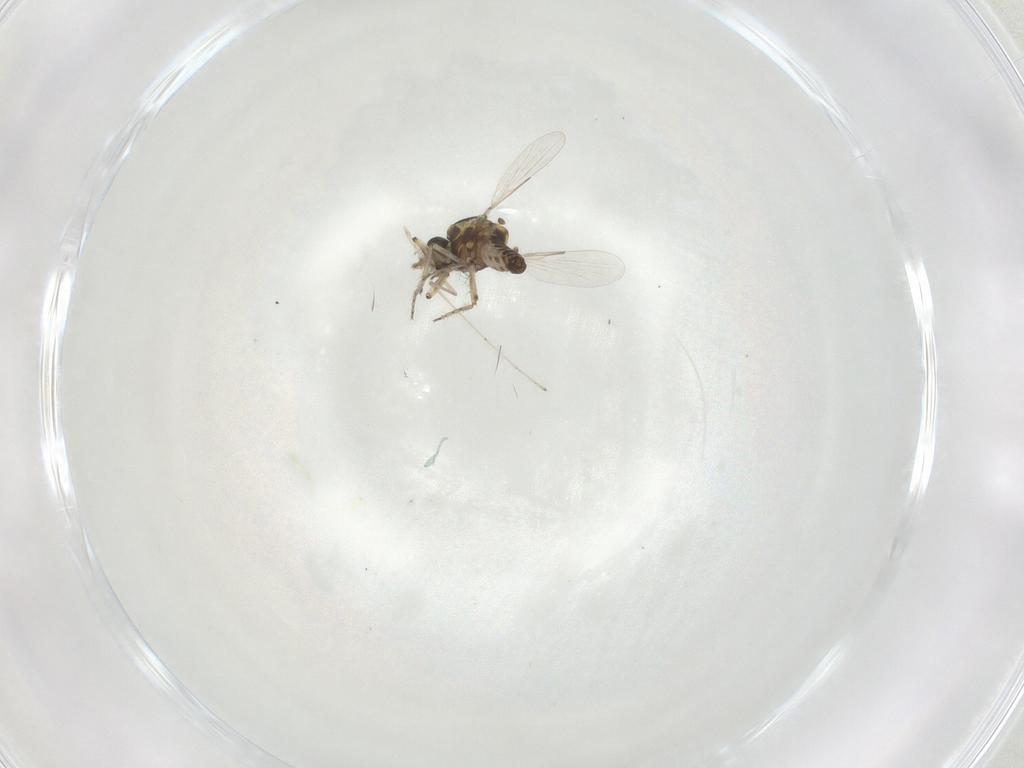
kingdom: Animalia
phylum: Arthropoda
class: Insecta
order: Diptera
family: Ceratopogonidae
